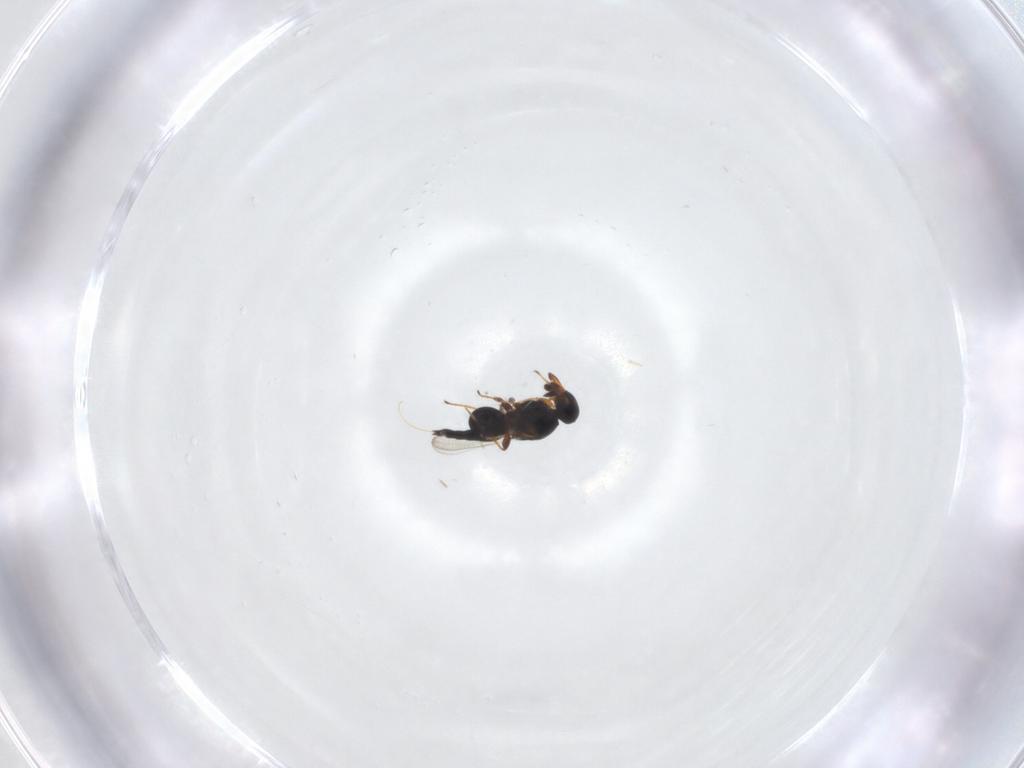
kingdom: Animalia
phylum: Arthropoda
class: Insecta
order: Hymenoptera
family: Platygastridae
